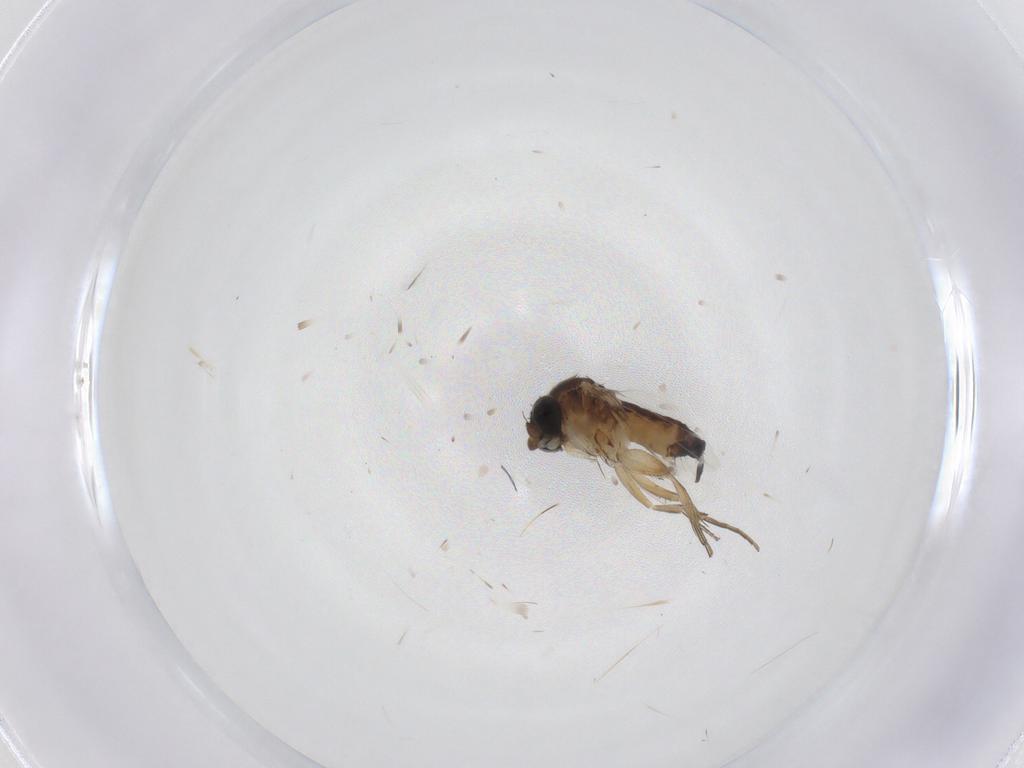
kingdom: Animalia
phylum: Arthropoda
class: Insecta
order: Diptera
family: Phoridae
